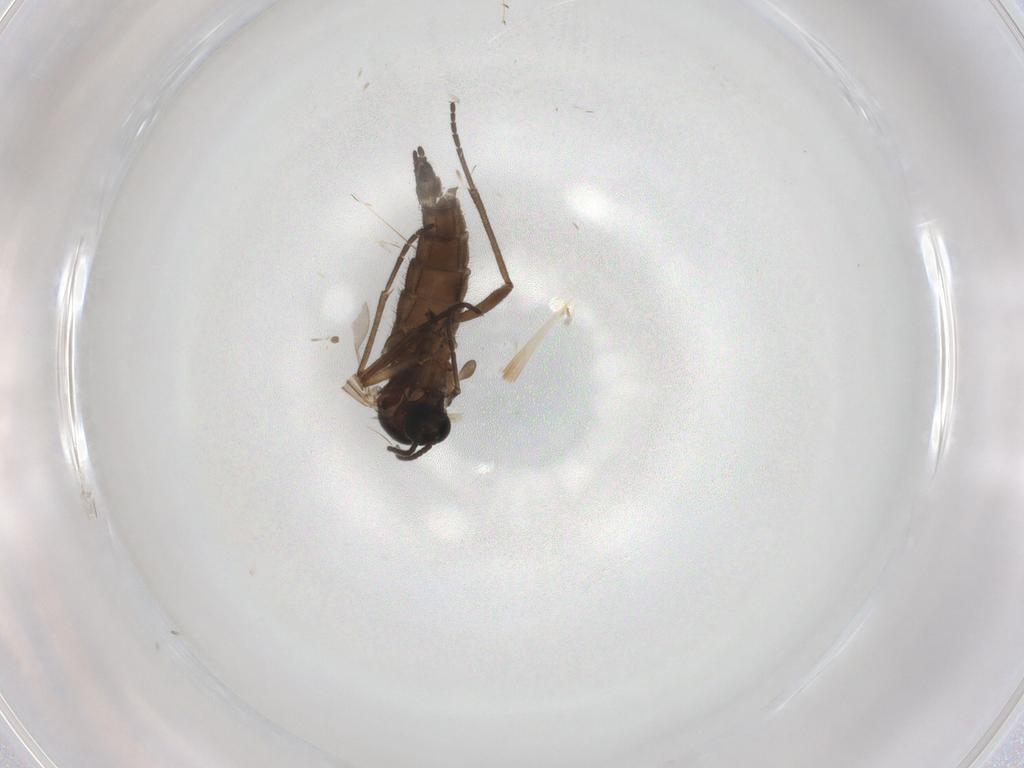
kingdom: Animalia
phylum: Arthropoda
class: Insecta
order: Diptera
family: Sciaridae
